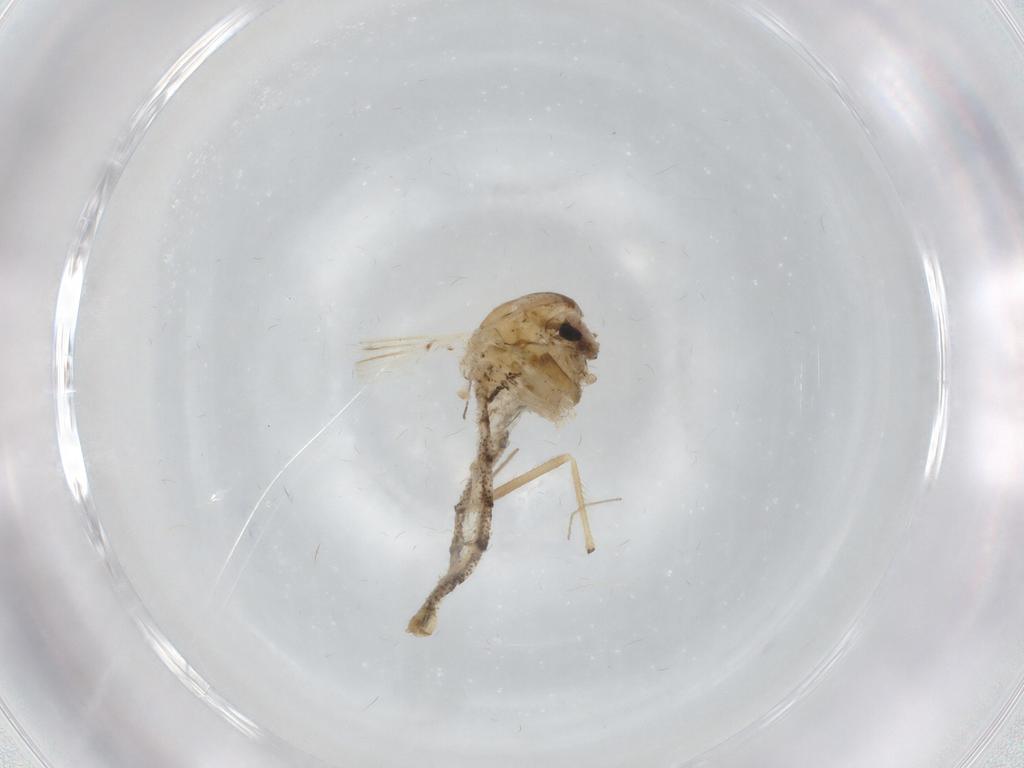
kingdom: Animalia
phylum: Arthropoda
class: Insecta
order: Diptera
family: Chaoboridae
